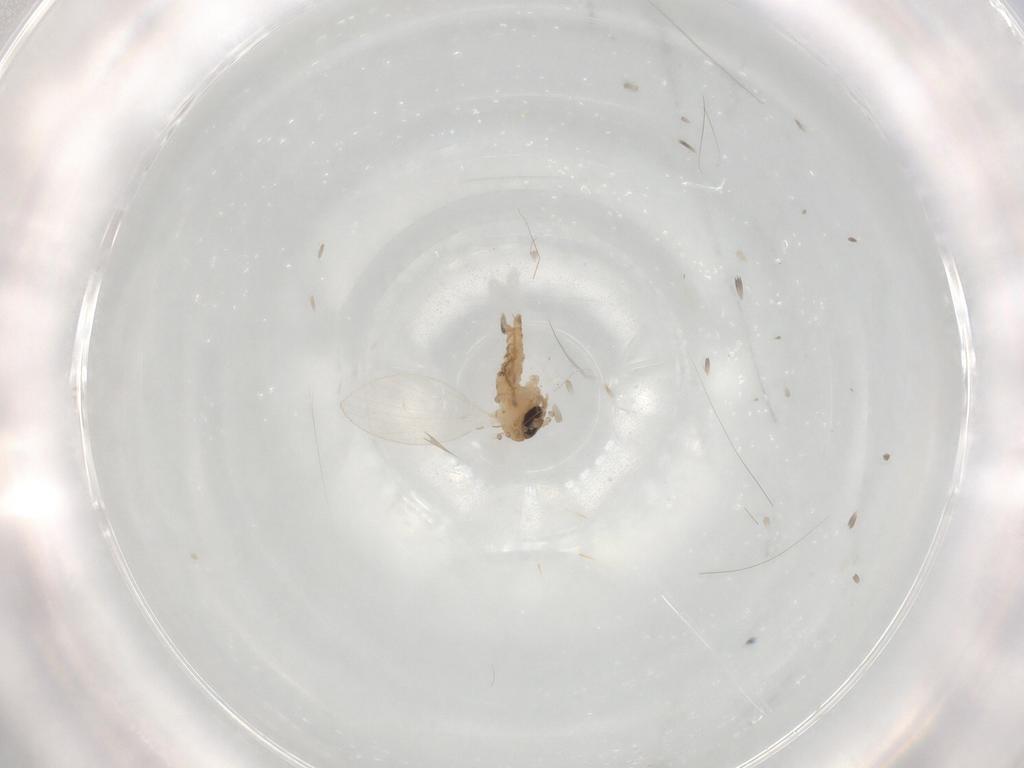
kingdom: Animalia
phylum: Arthropoda
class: Insecta
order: Diptera
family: Psychodidae
